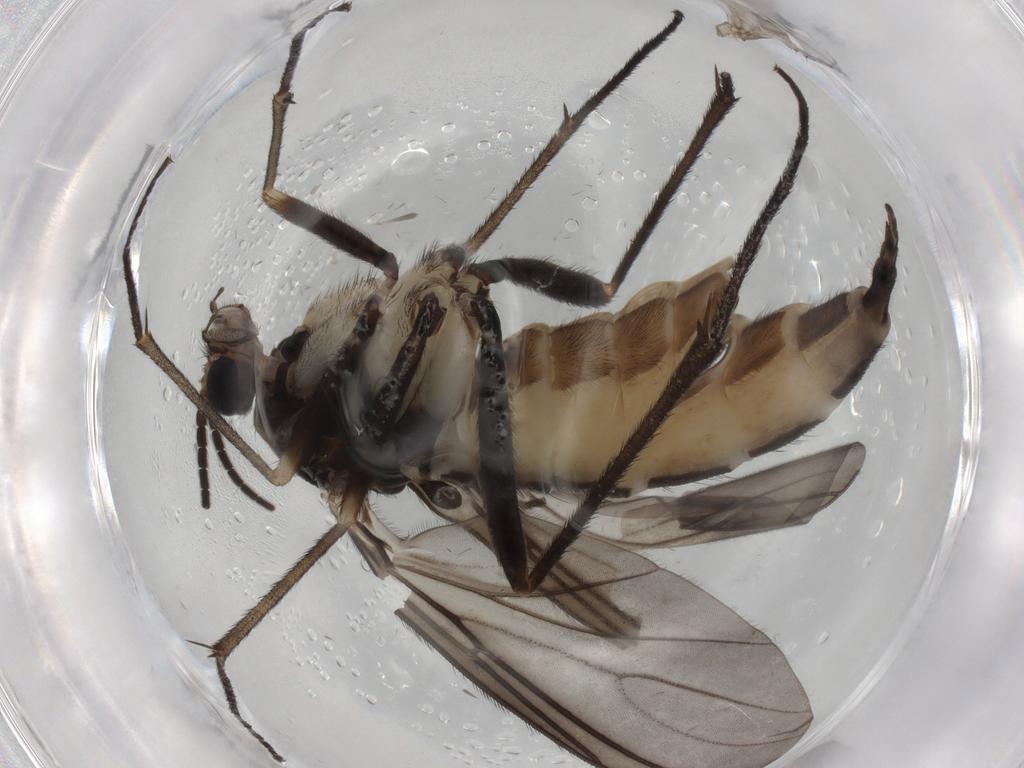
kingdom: Animalia
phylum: Arthropoda
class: Insecta
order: Diptera
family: Sciaridae
